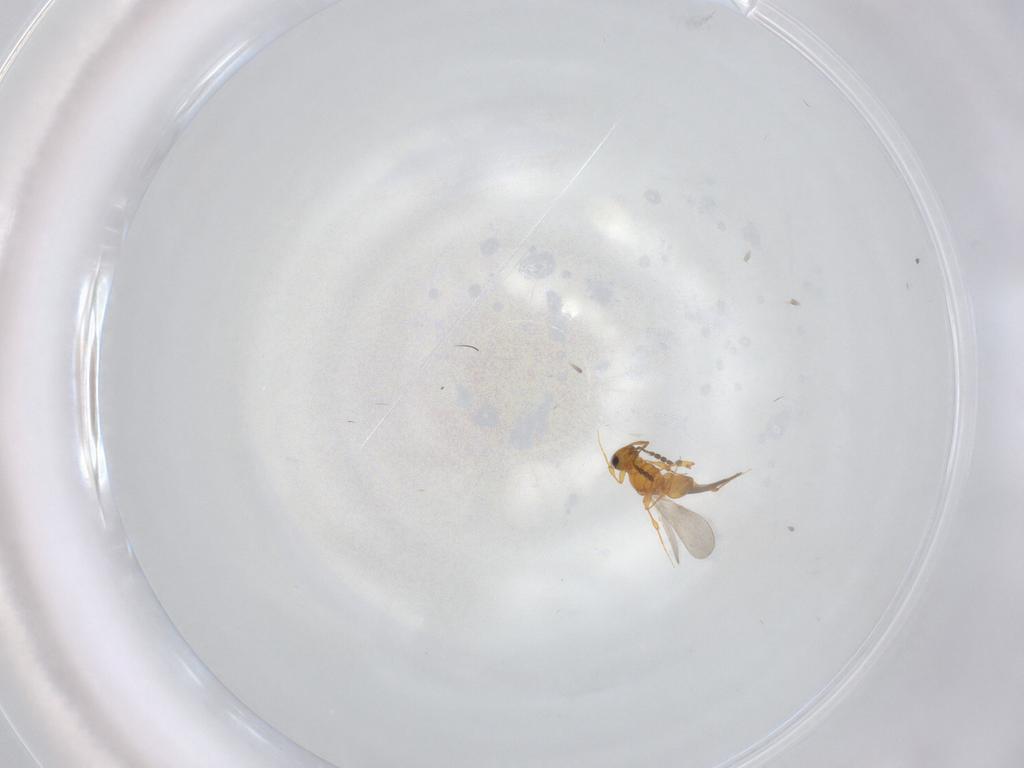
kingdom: Animalia
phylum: Arthropoda
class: Insecta
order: Hymenoptera
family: Platygastridae
